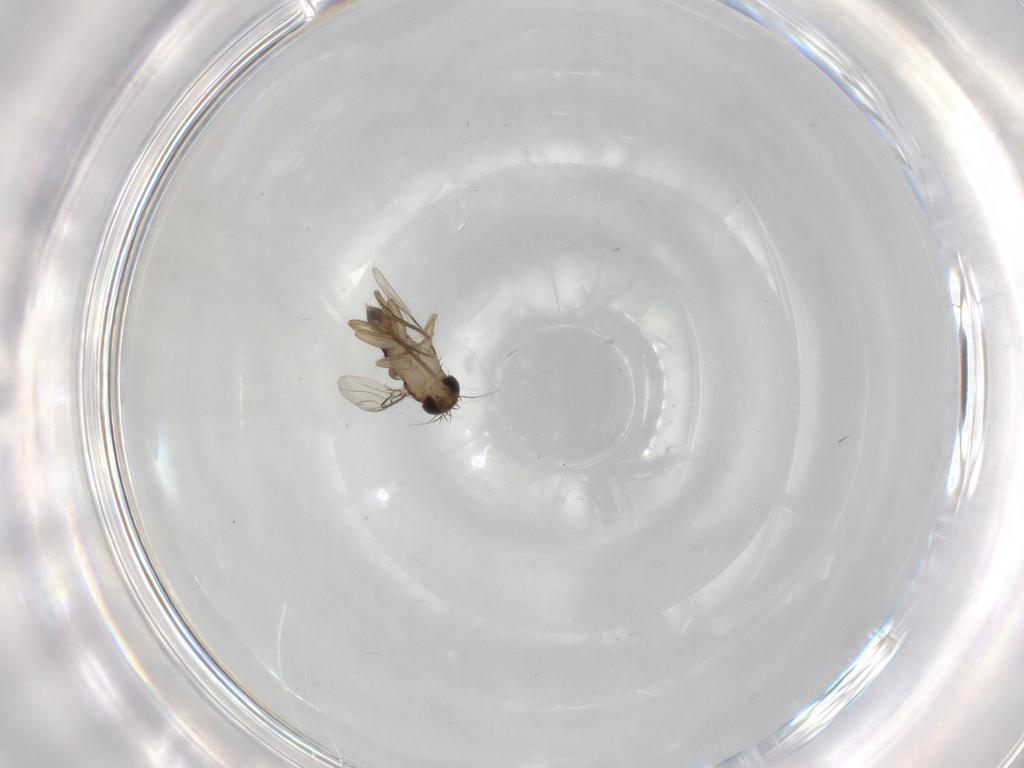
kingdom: Animalia
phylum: Arthropoda
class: Insecta
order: Diptera
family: Phoridae
